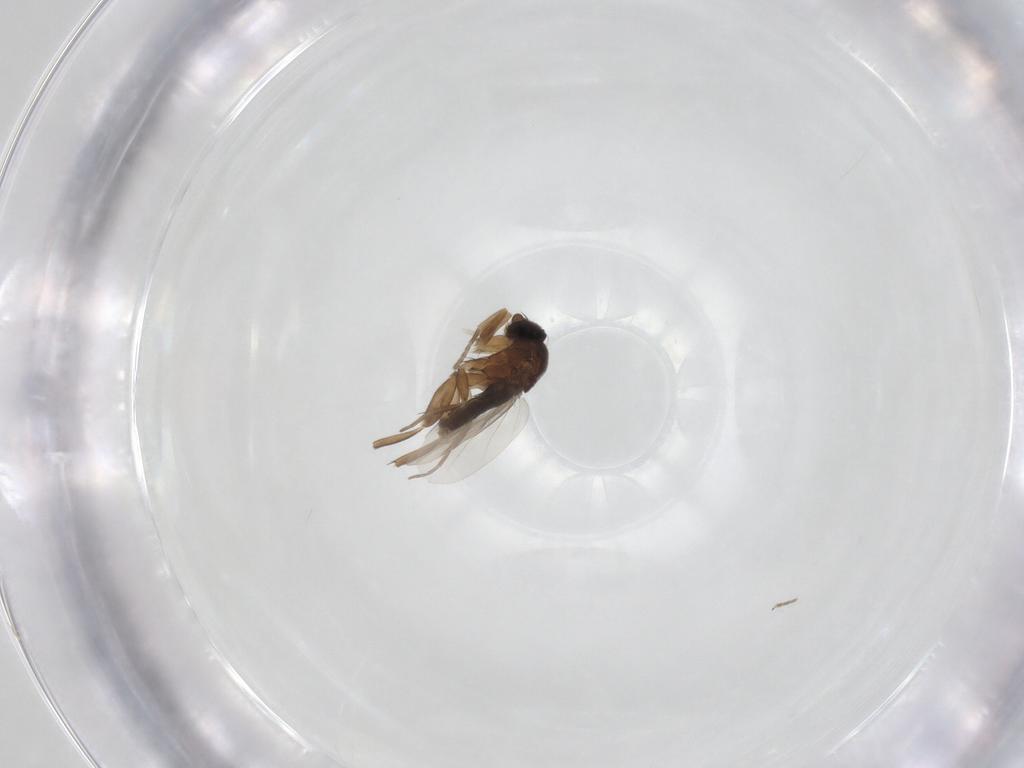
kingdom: Animalia
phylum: Arthropoda
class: Insecta
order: Diptera
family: Phoridae
